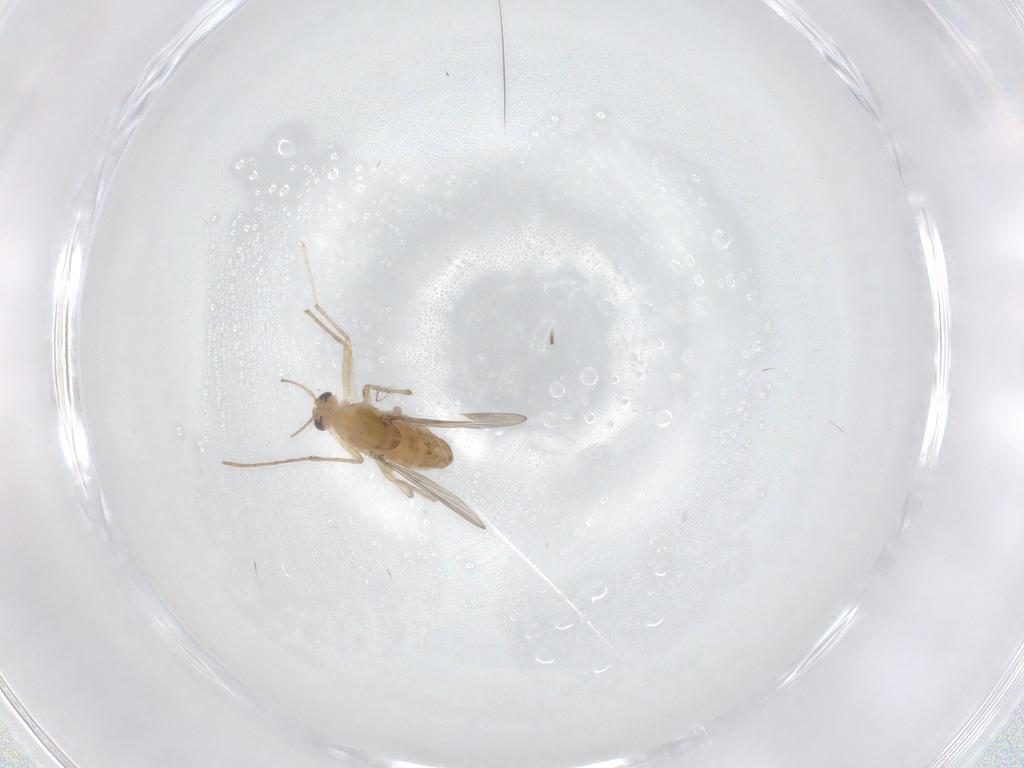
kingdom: Animalia
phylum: Arthropoda
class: Insecta
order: Diptera
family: Chironomidae
